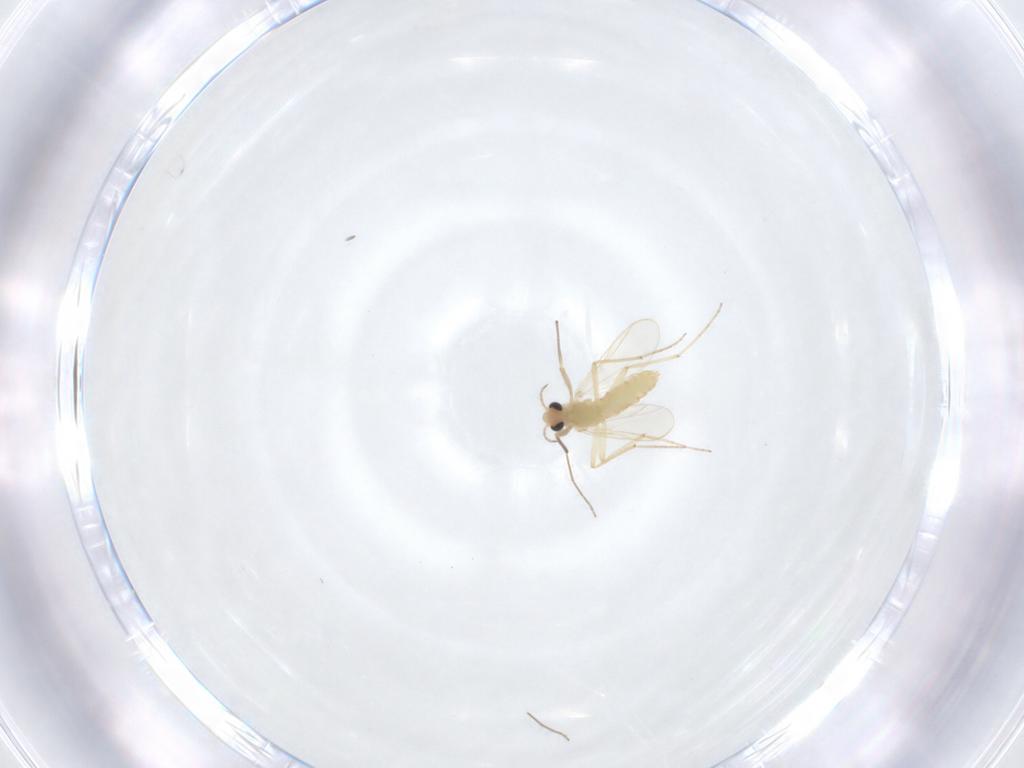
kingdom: Animalia
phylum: Arthropoda
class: Insecta
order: Diptera
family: Chironomidae
